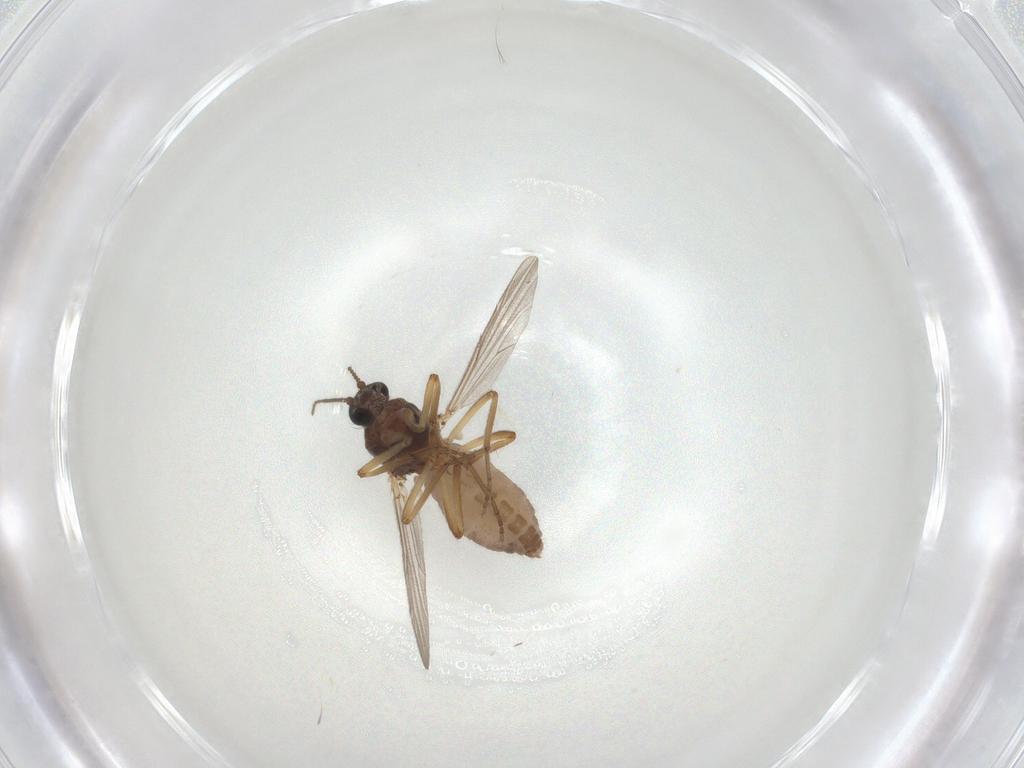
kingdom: Animalia
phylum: Arthropoda
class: Insecta
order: Diptera
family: Ceratopogonidae
